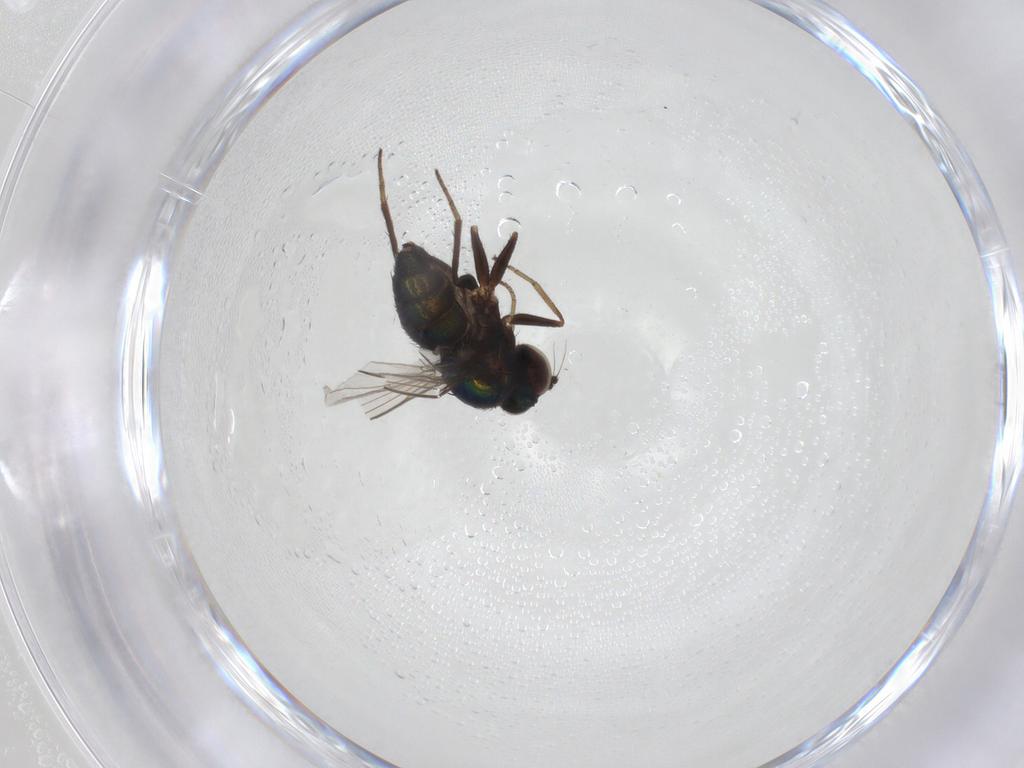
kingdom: Animalia
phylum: Arthropoda
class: Insecta
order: Diptera
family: Dolichopodidae
